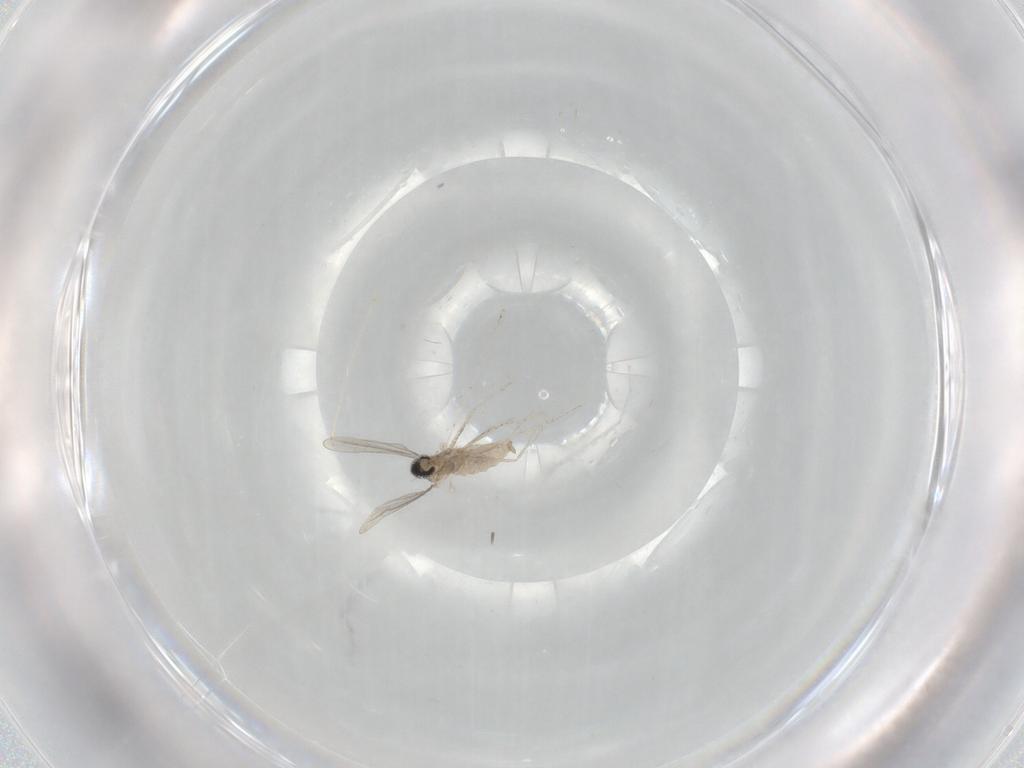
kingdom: Animalia
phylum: Arthropoda
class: Insecta
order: Diptera
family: Cecidomyiidae
